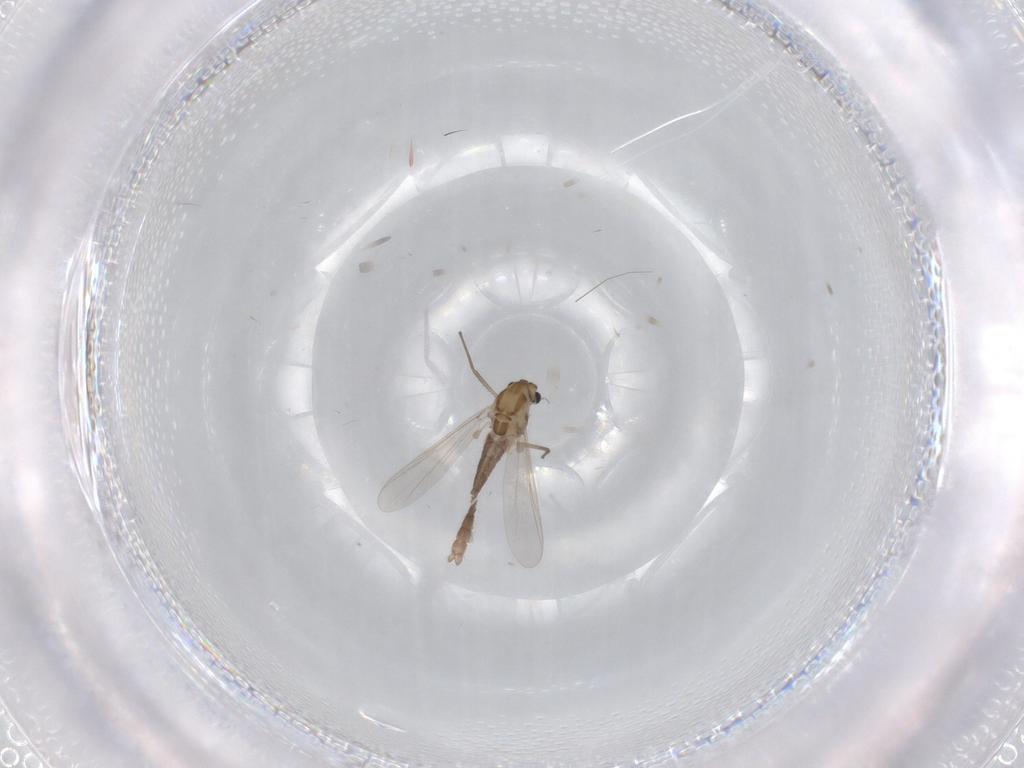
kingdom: Animalia
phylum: Arthropoda
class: Insecta
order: Diptera
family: Chironomidae
